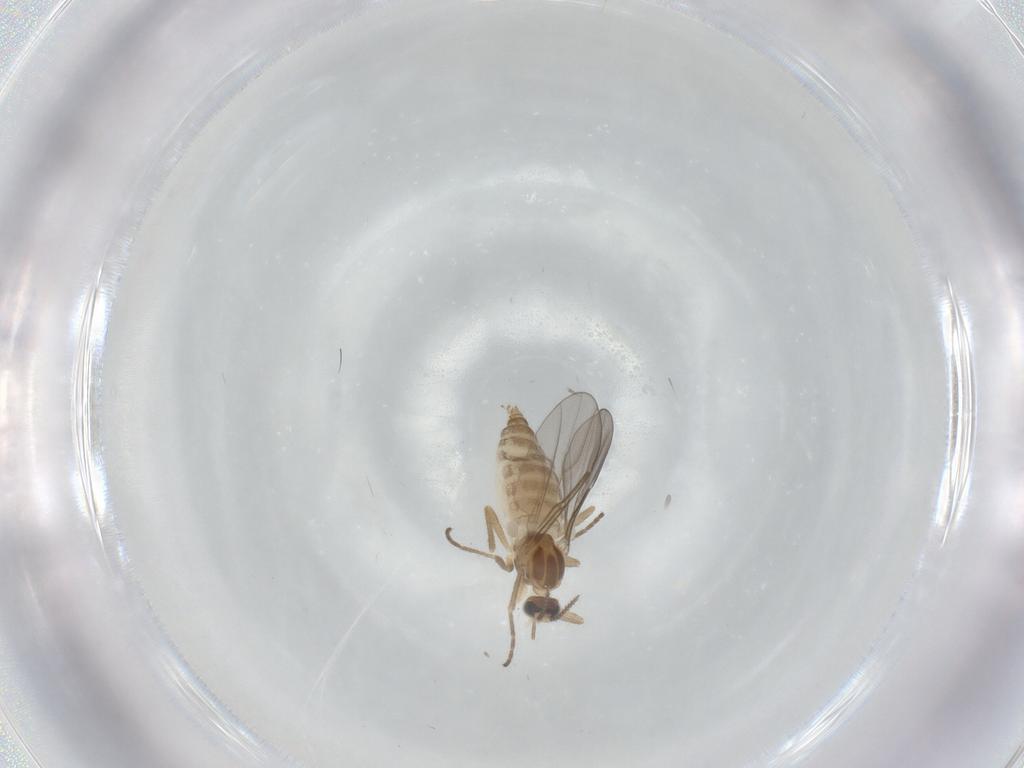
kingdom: Animalia
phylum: Arthropoda
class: Insecta
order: Diptera
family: Cecidomyiidae
